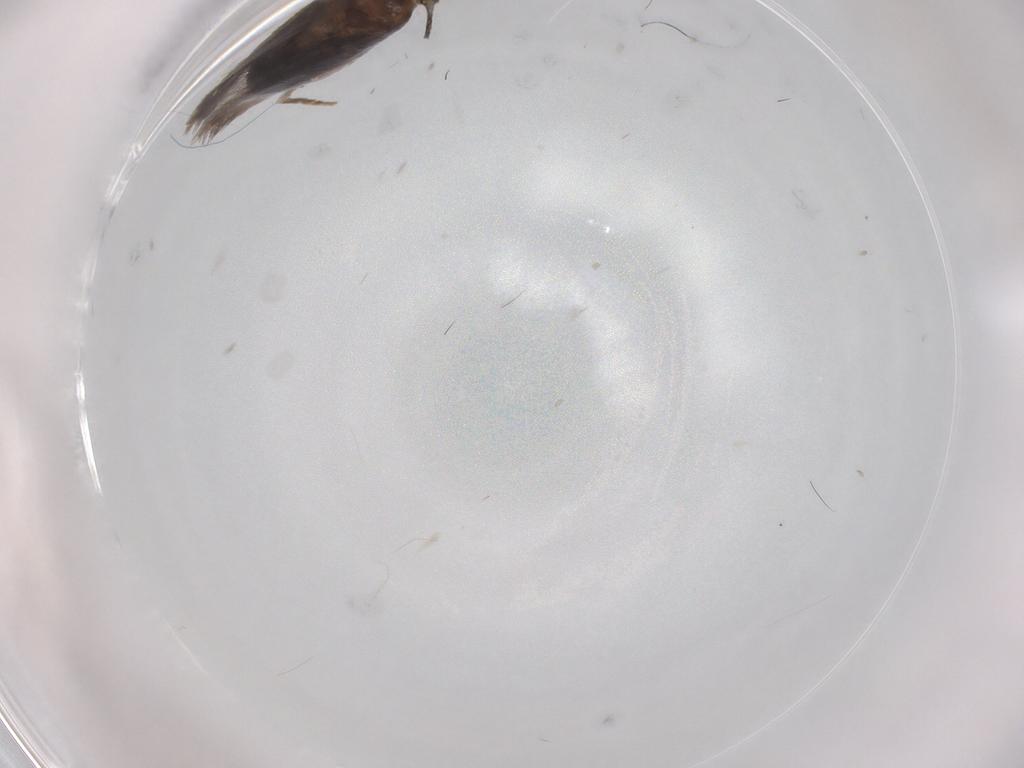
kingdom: Animalia
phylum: Arthropoda
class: Insecta
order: Lepidoptera
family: Nepticulidae
